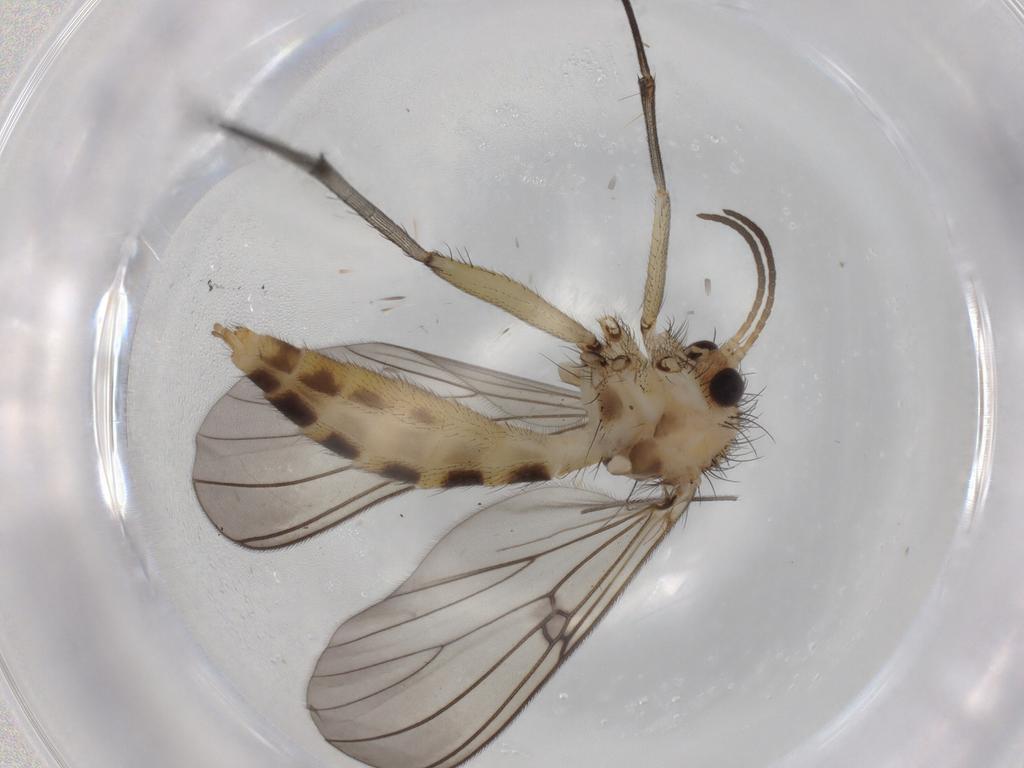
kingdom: Animalia
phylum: Arthropoda
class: Insecta
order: Diptera
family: Mycetophilidae
